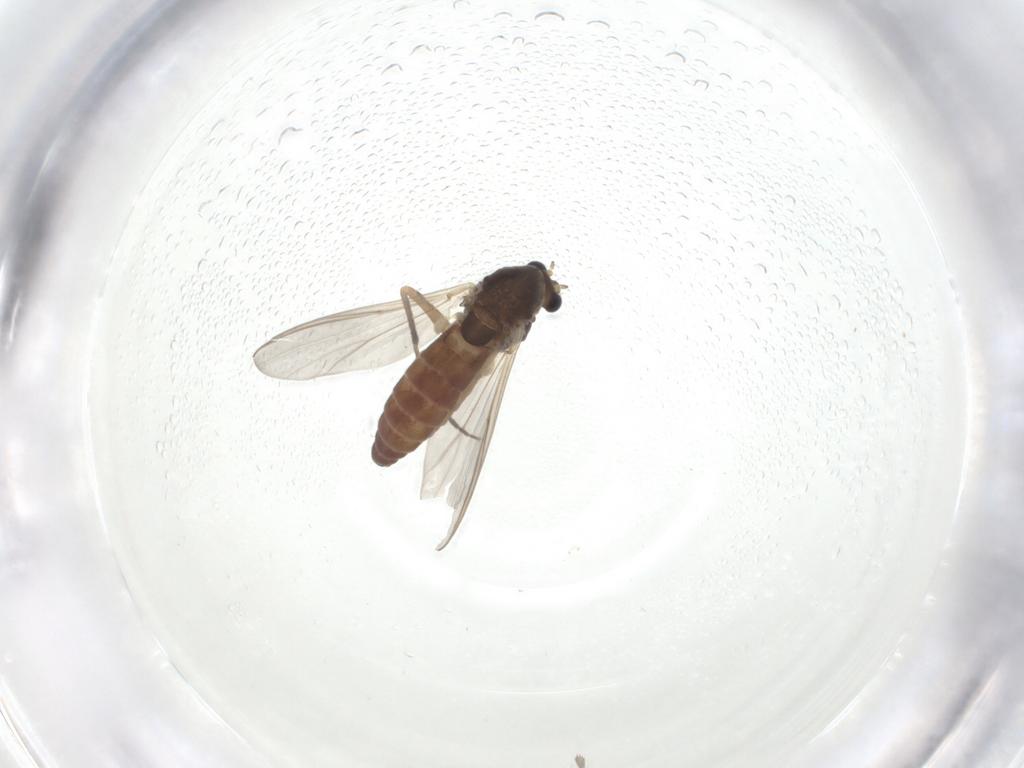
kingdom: Animalia
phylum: Arthropoda
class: Insecta
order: Diptera
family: Chironomidae
